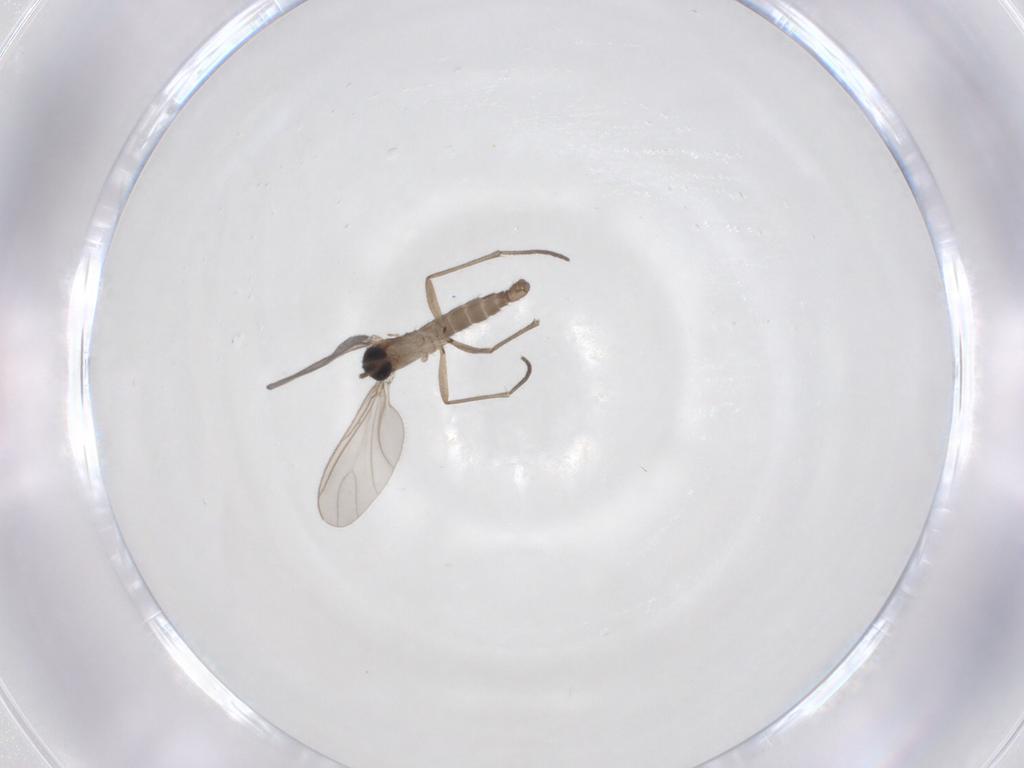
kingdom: Animalia
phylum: Arthropoda
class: Insecta
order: Diptera
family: Sciaridae
